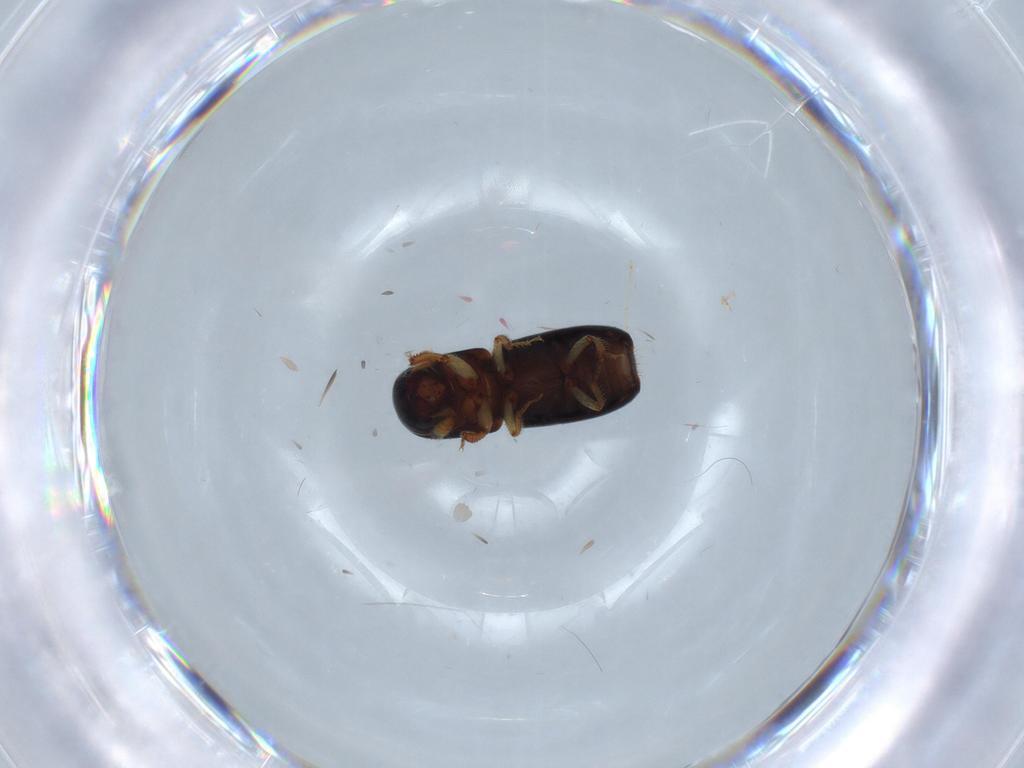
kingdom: Animalia
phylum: Arthropoda
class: Insecta
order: Coleoptera
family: Curculionidae
